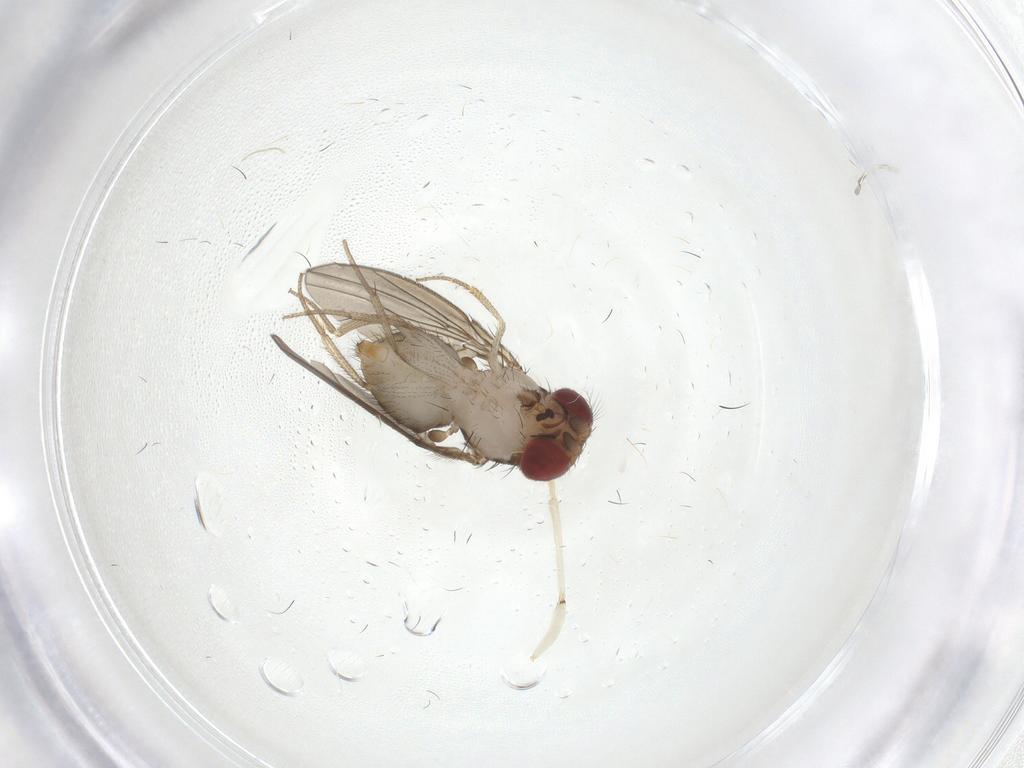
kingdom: Animalia
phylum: Arthropoda
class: Insecta
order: Diptera
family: Drosophilidae
